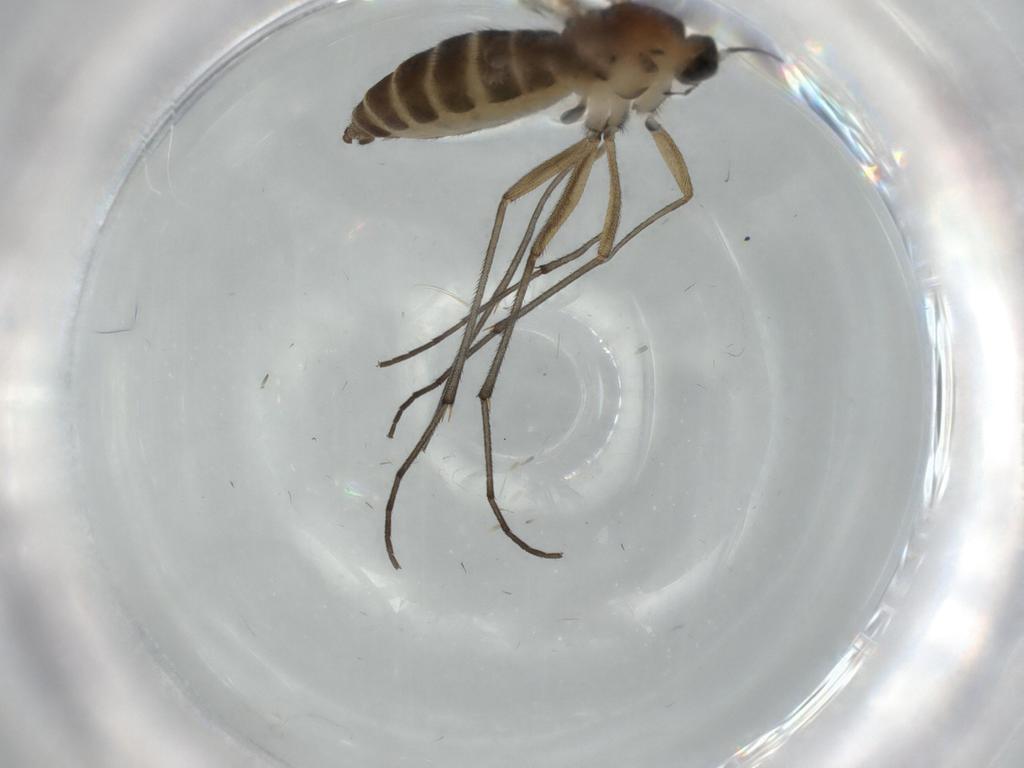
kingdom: Animalia
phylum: Arthropoda
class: Insecta
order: Diptera
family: Sciaridae
